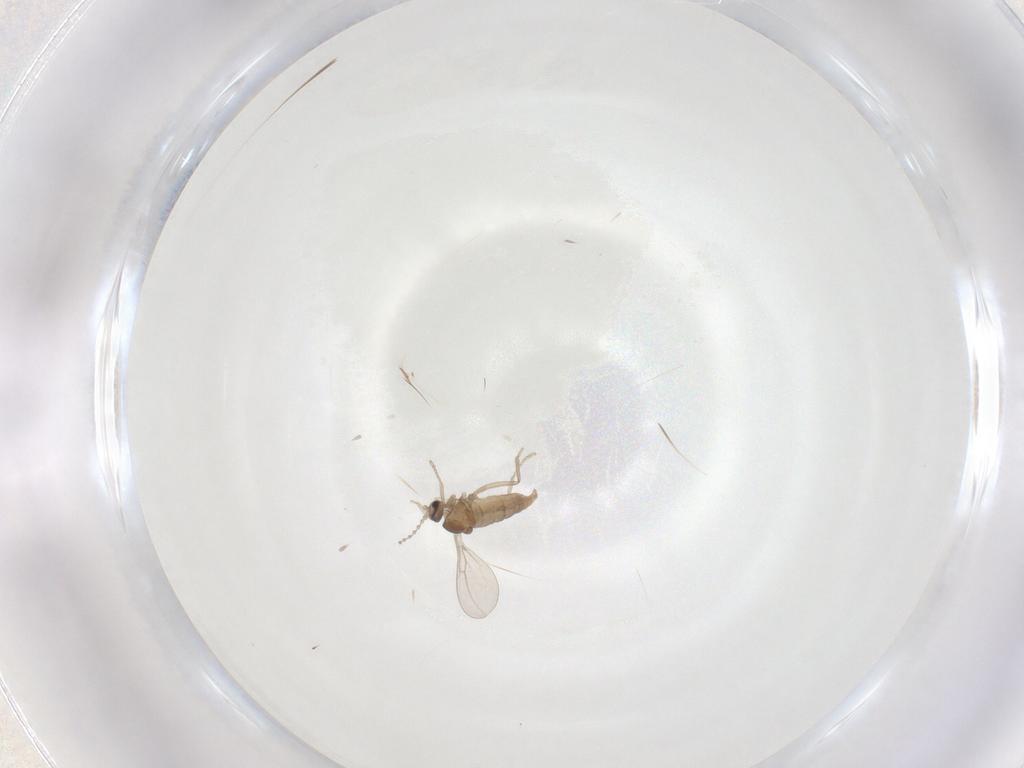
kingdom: Animalia
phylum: Arthropoda
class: Insecta
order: Diptera
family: Cecidomyiidae
